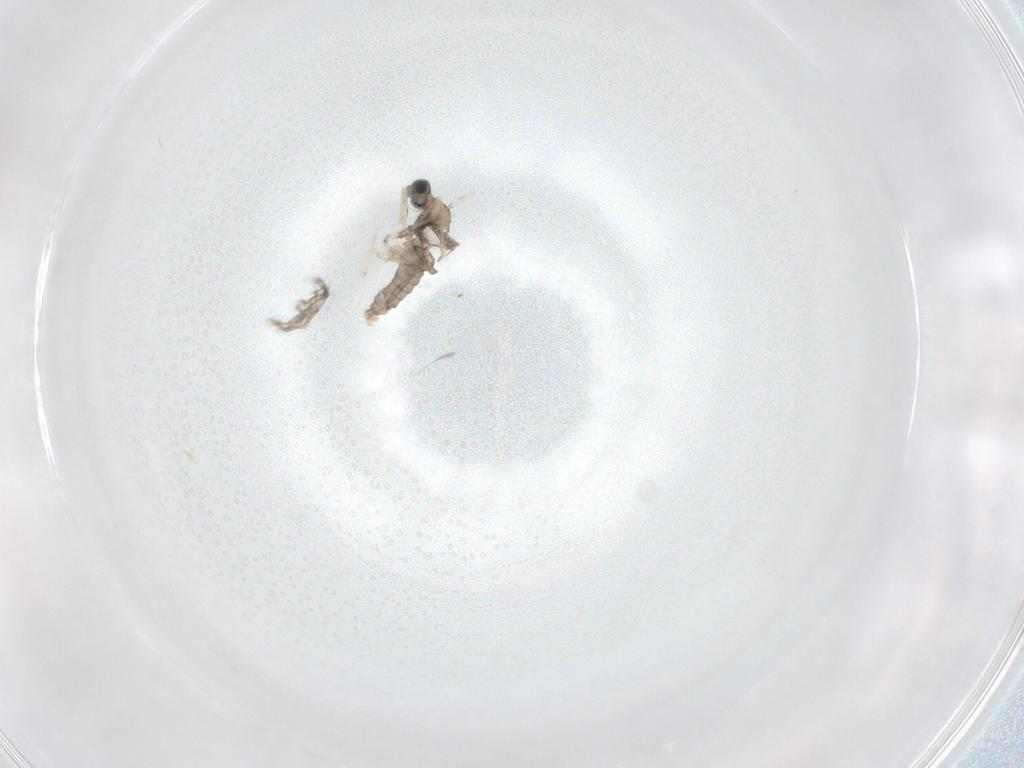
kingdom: Animalia
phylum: Arthropoda
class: Insecta
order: Diptera
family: Cecidomyiidae
